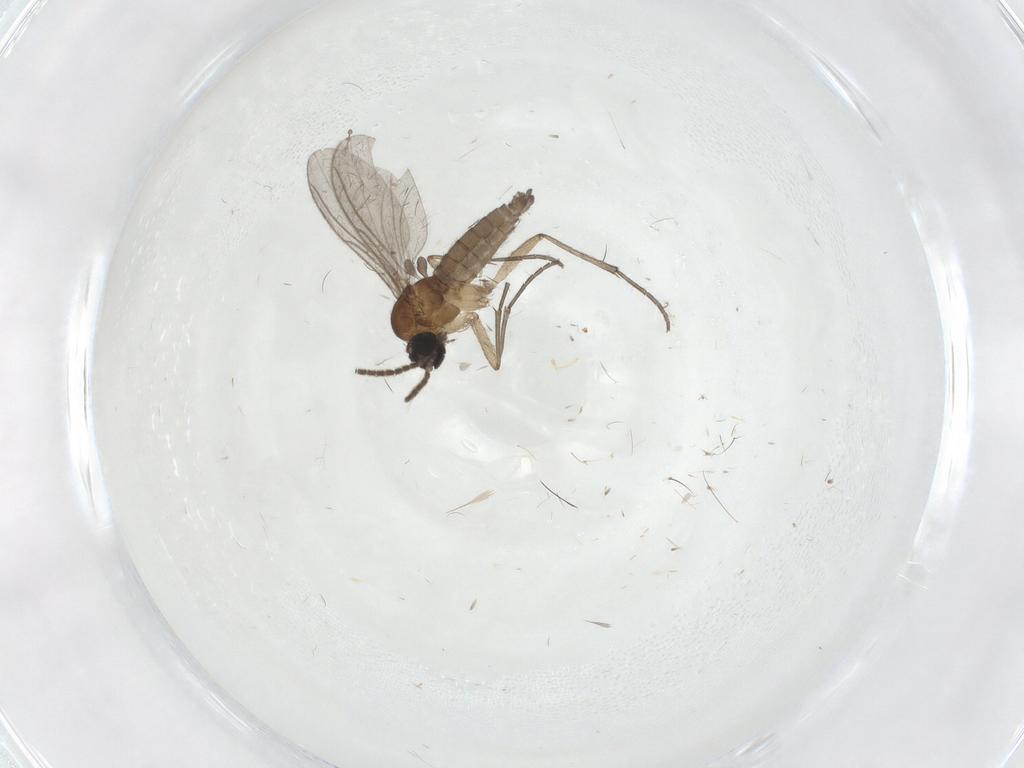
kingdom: Animalia
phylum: Arthropoda
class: Insecta
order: Diptera
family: Sciaridae
